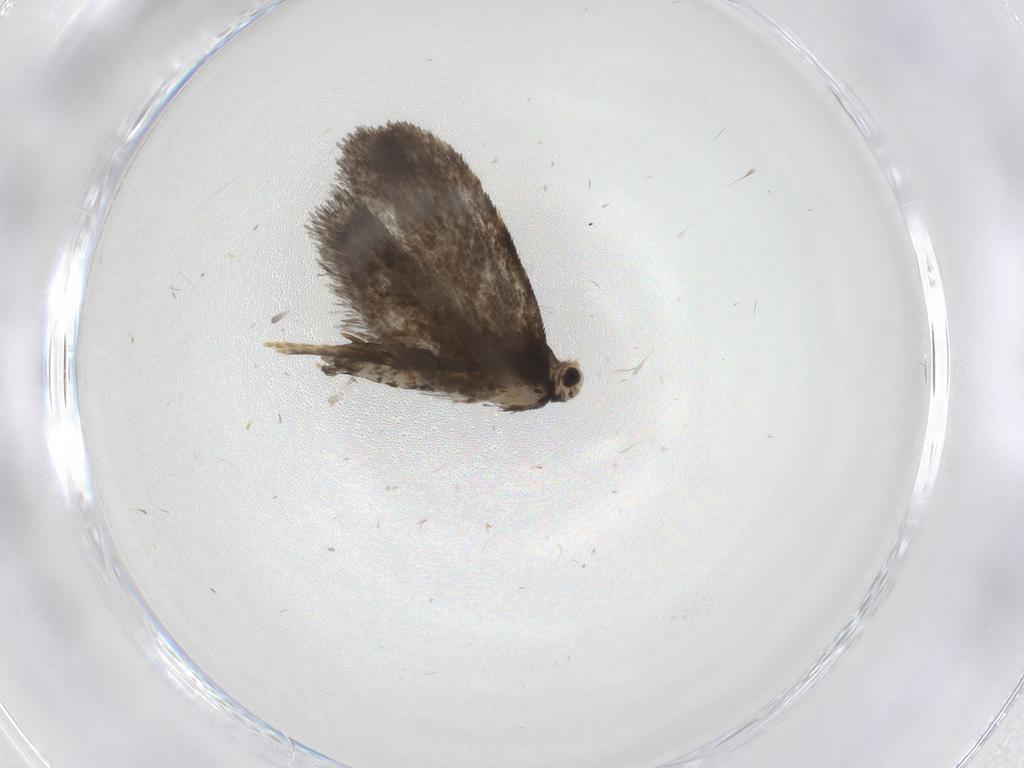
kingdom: Animalia
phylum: Arthropoda
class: Insecta
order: Lepidoptera
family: Psychidae
